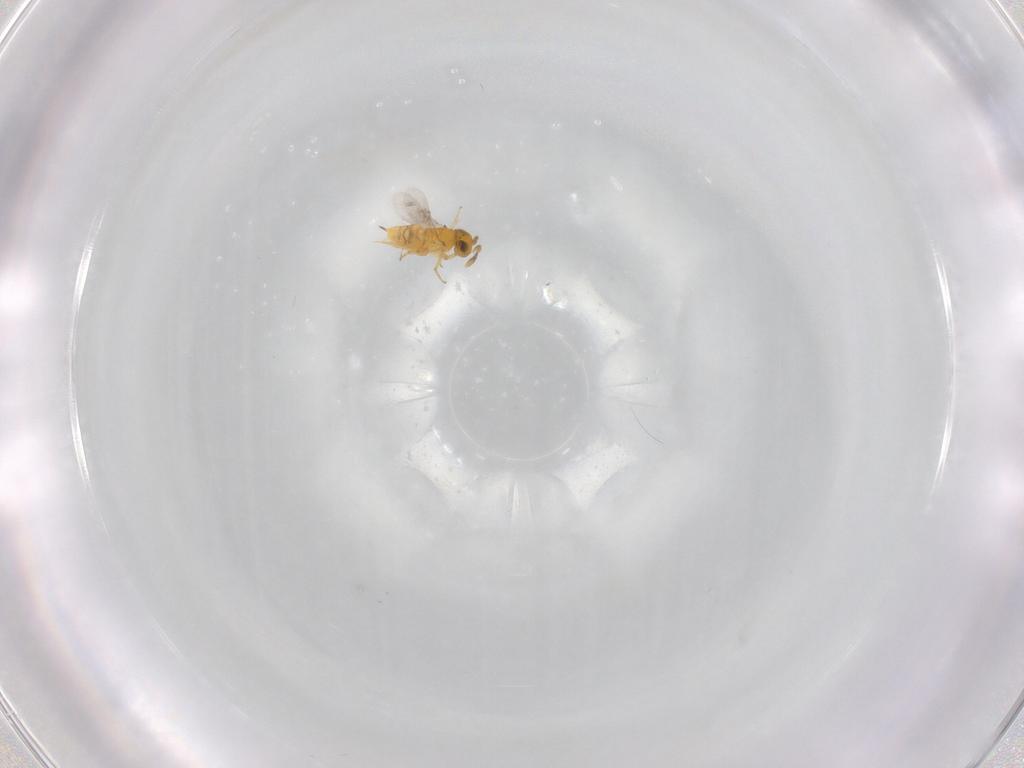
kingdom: Animalia
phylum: Arthropoda
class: Insecta
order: Hymenoptera
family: Encyrtidae
